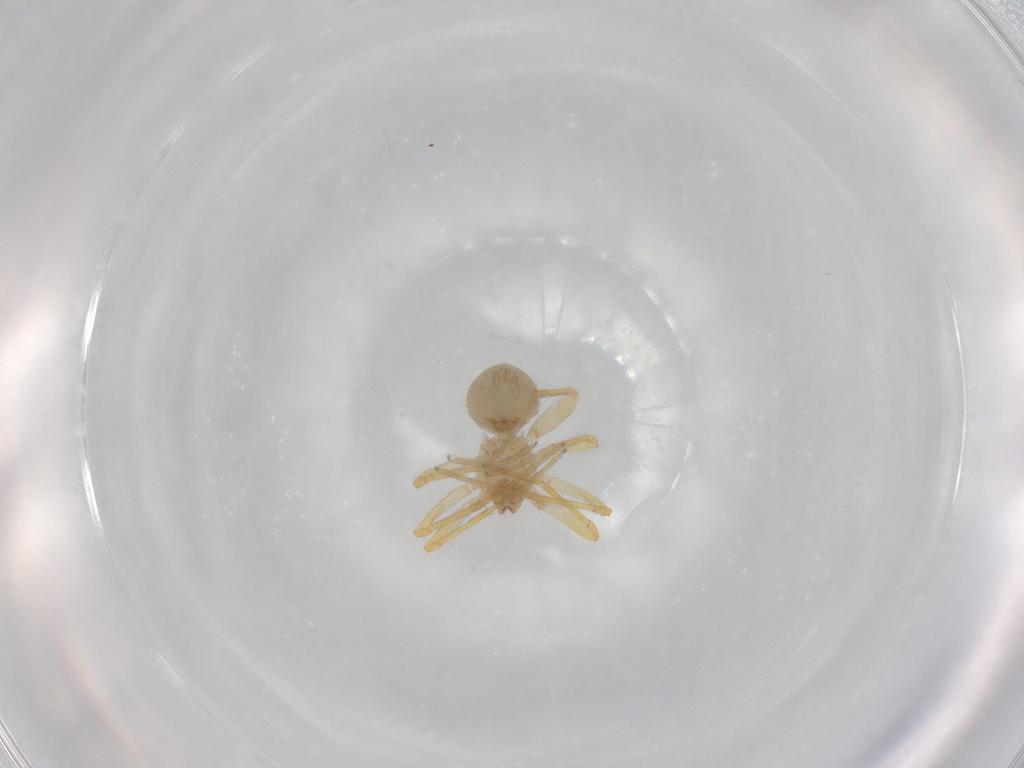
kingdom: Animalia
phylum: Arthropoda
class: Arachnida
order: Araneae
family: Oonopidae
